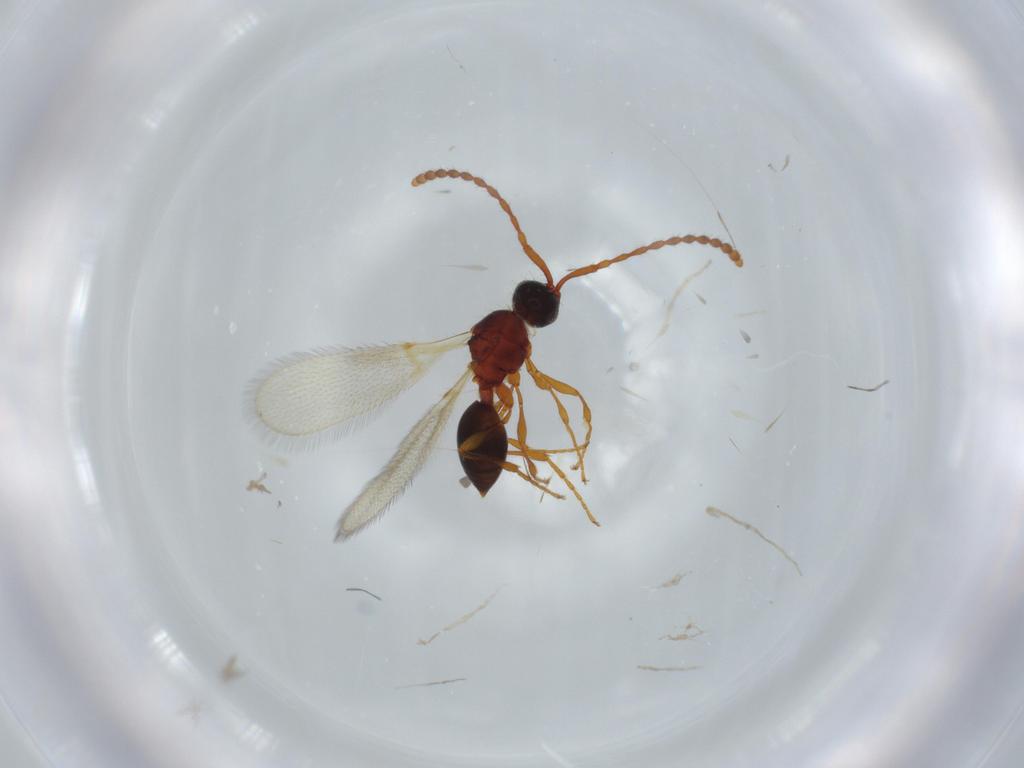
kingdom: Animalia
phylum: Arthropoda
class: Insecta
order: Hymenoptera
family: Diapriidae
